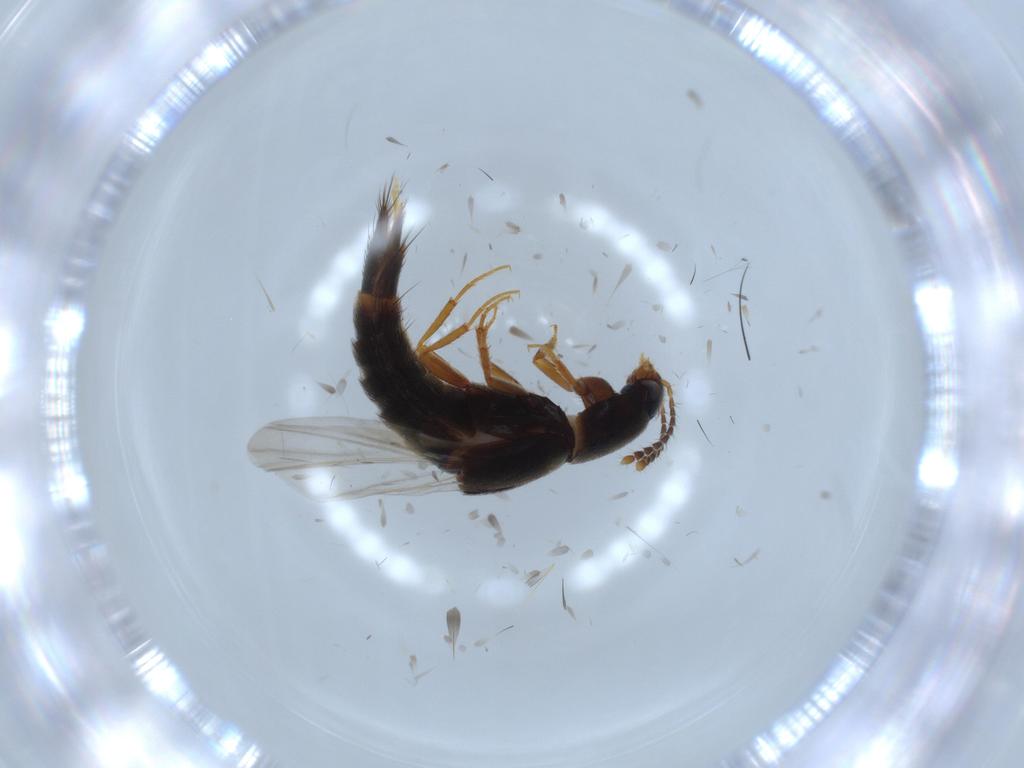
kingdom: Animalia
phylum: Arthropoda
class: Insecta
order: Coleoptera
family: Staphylinidae
